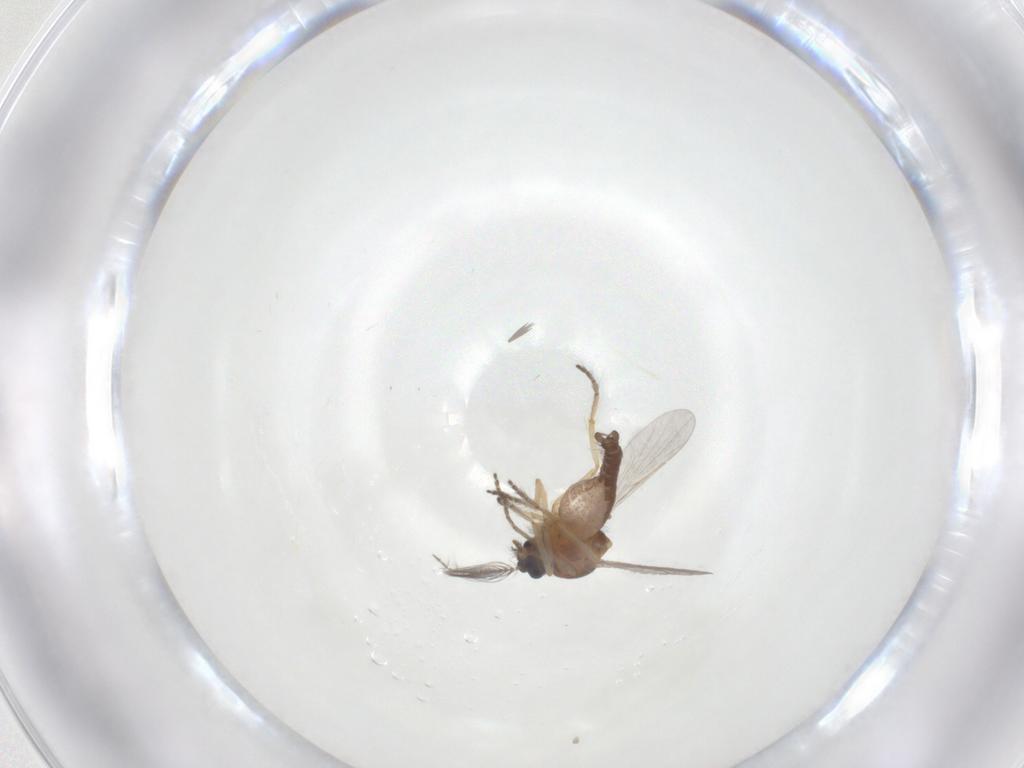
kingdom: Animalia
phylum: Arthropoda
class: Insecta
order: Diptera
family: Ceratopogonidae
